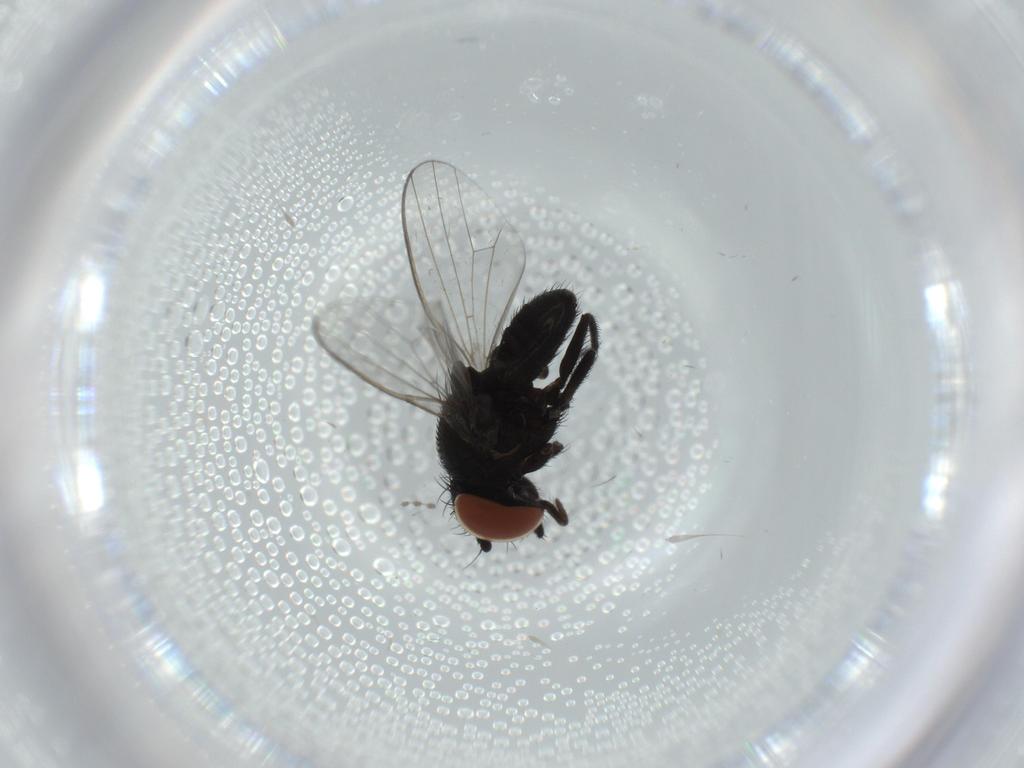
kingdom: Animalia
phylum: Arthropoda
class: Insecta
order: Diptera
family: Milichiidae
